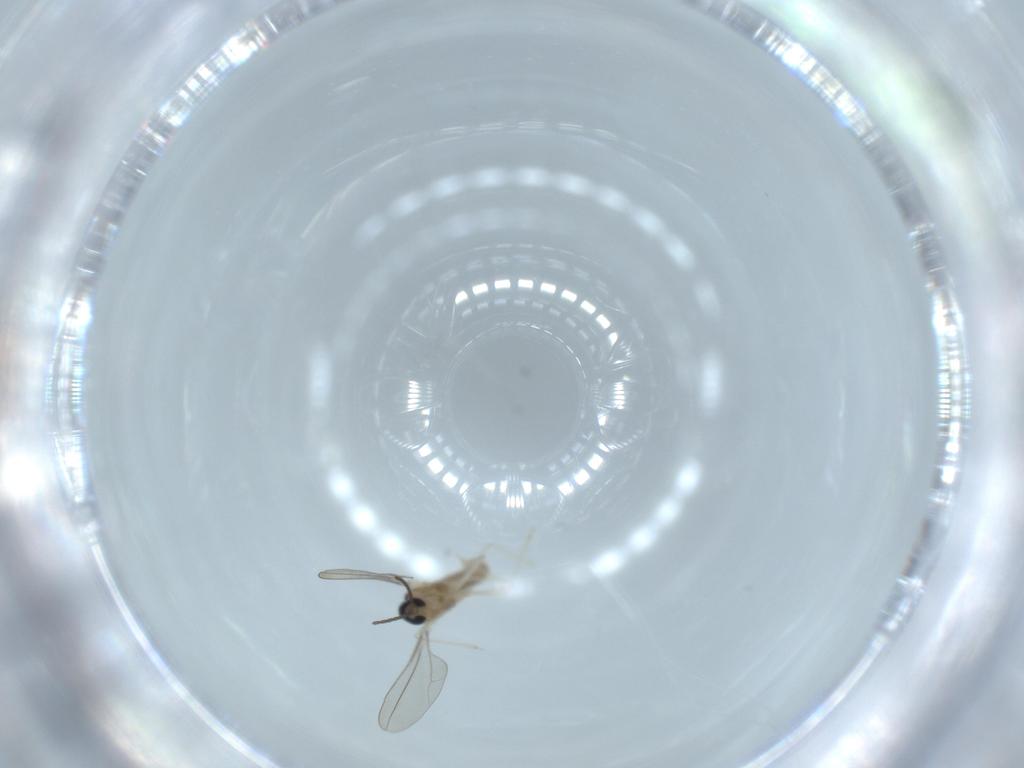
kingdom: Animalia
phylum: Arthropoda
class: Insecta
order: Diptera
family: Cecidomyiidae
